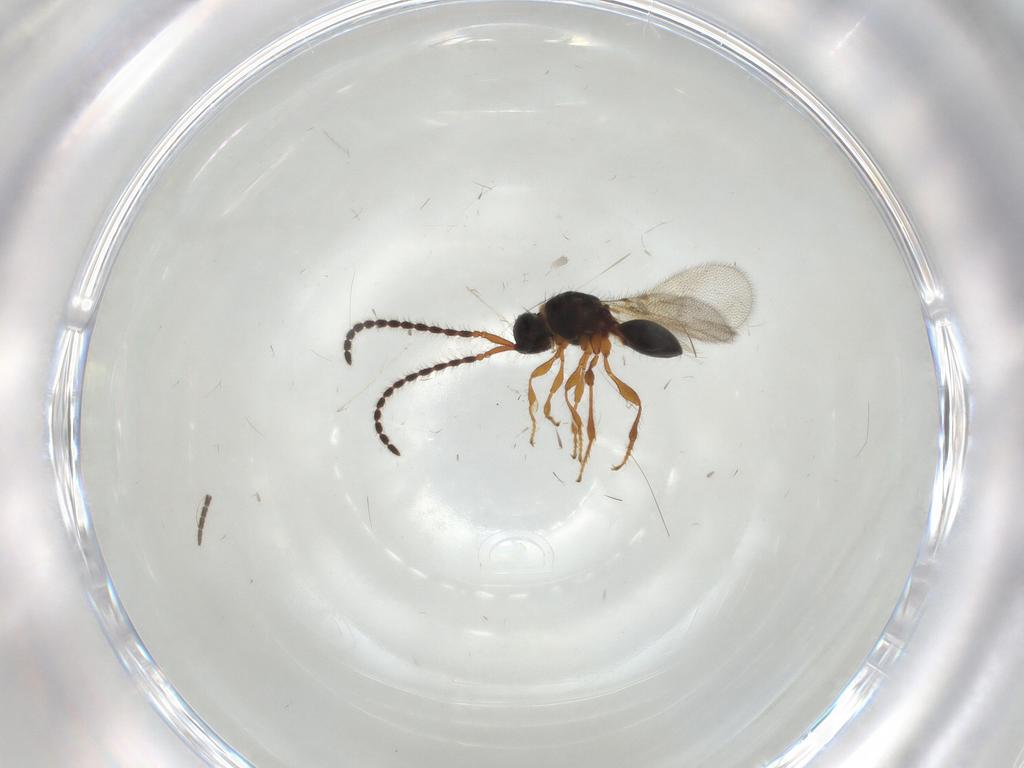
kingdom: Animalia
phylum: Arthropoda
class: Insecta
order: Hymenoptera
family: Diapriidae
